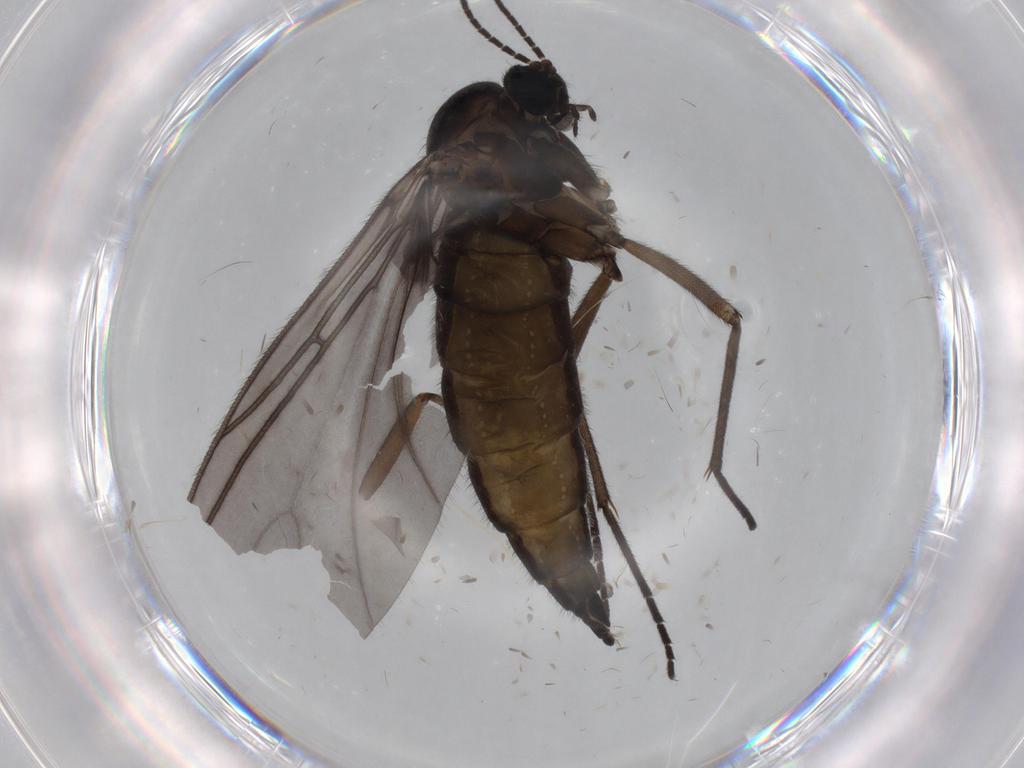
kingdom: Animalia
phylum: Arthropoda
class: Insecta
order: Diptera
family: Sciaridae
